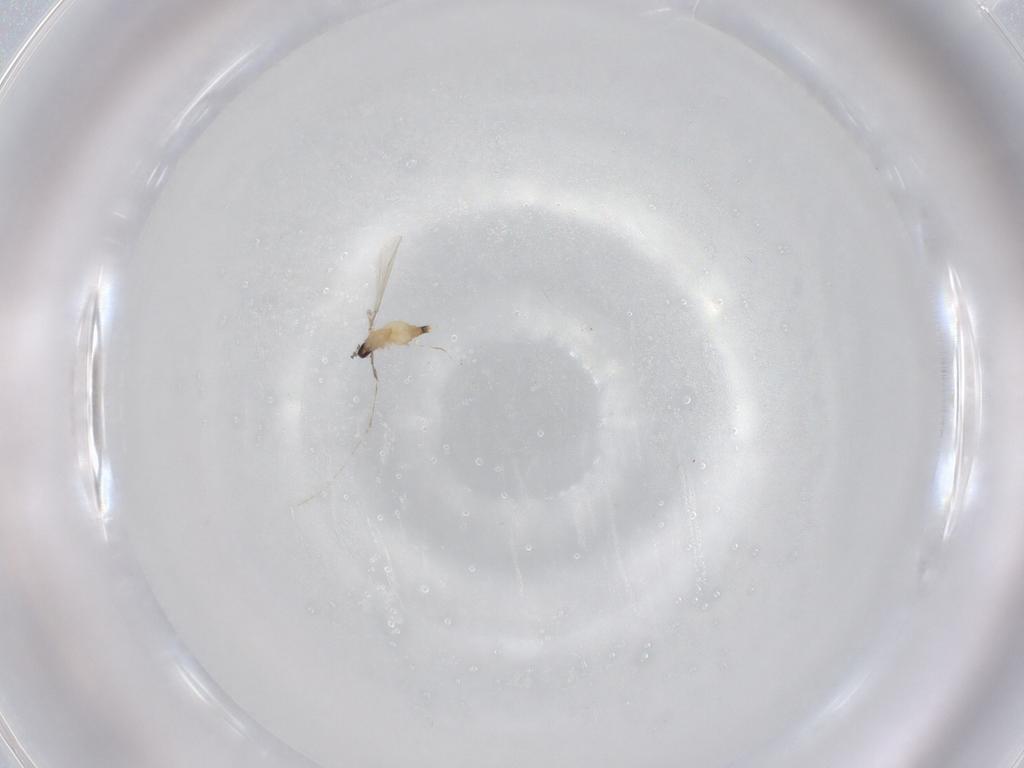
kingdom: Animalia
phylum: Arthropoda
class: Insecta
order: Diptera
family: Cecidomyiidae
